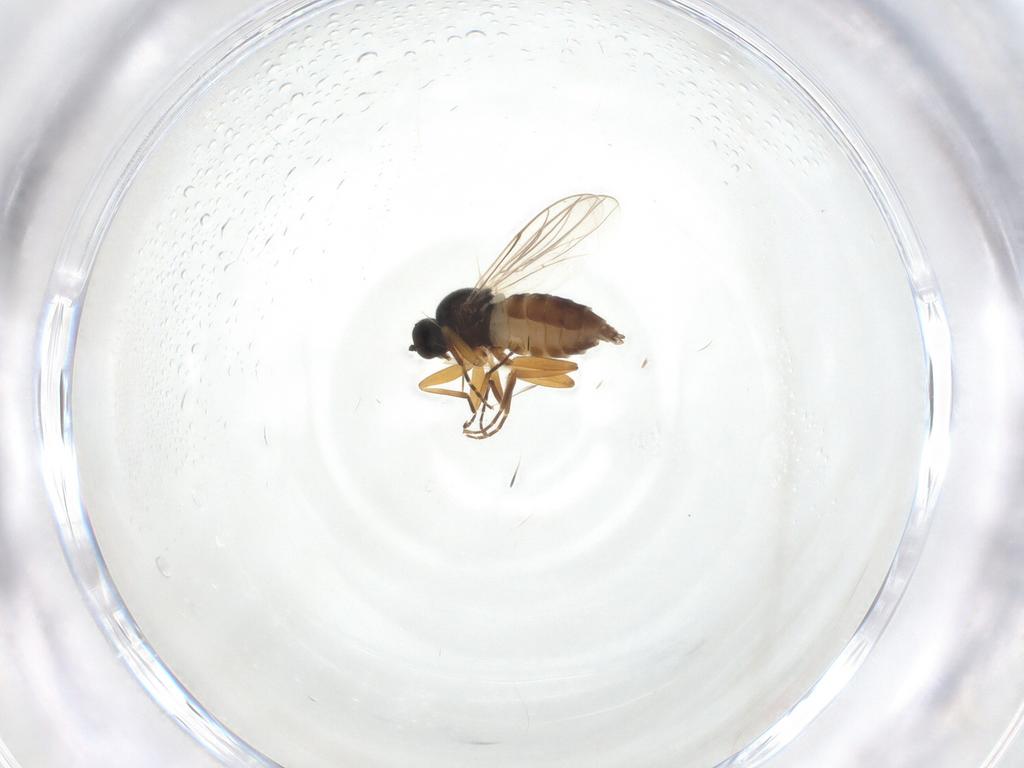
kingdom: Animalia
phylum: Arthropoda
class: Insecta
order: Diptera
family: Hybotidae
